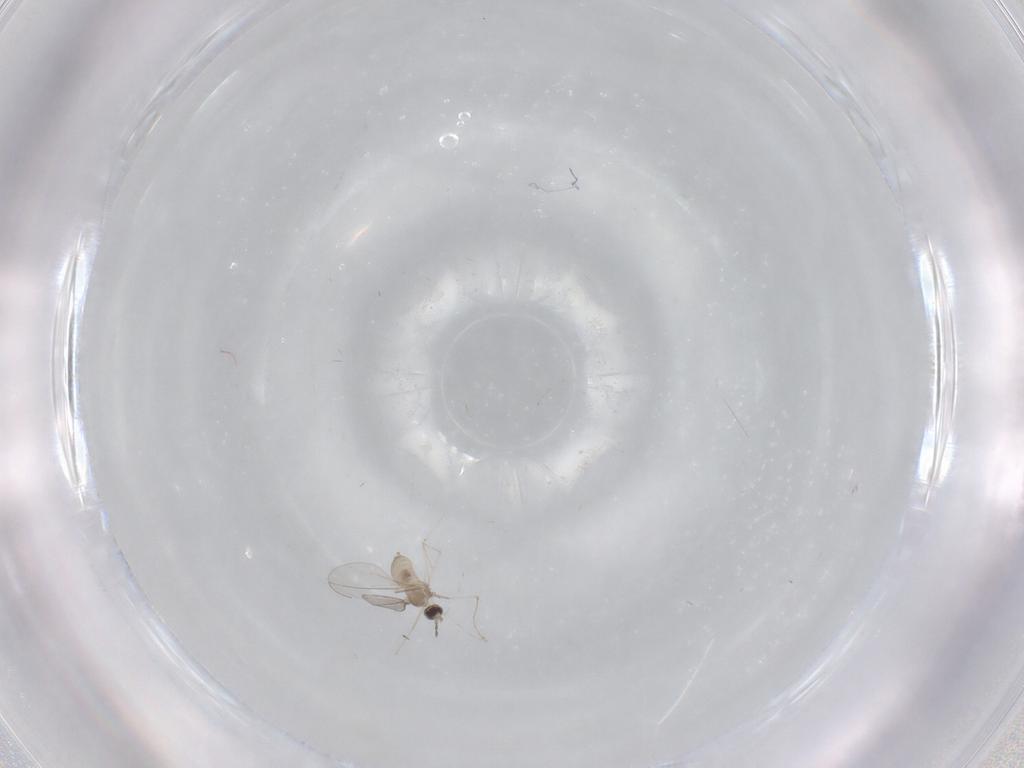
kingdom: Animalia
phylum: Arthropoda
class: Insecta
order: Diptera
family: Cecidomyiidae
